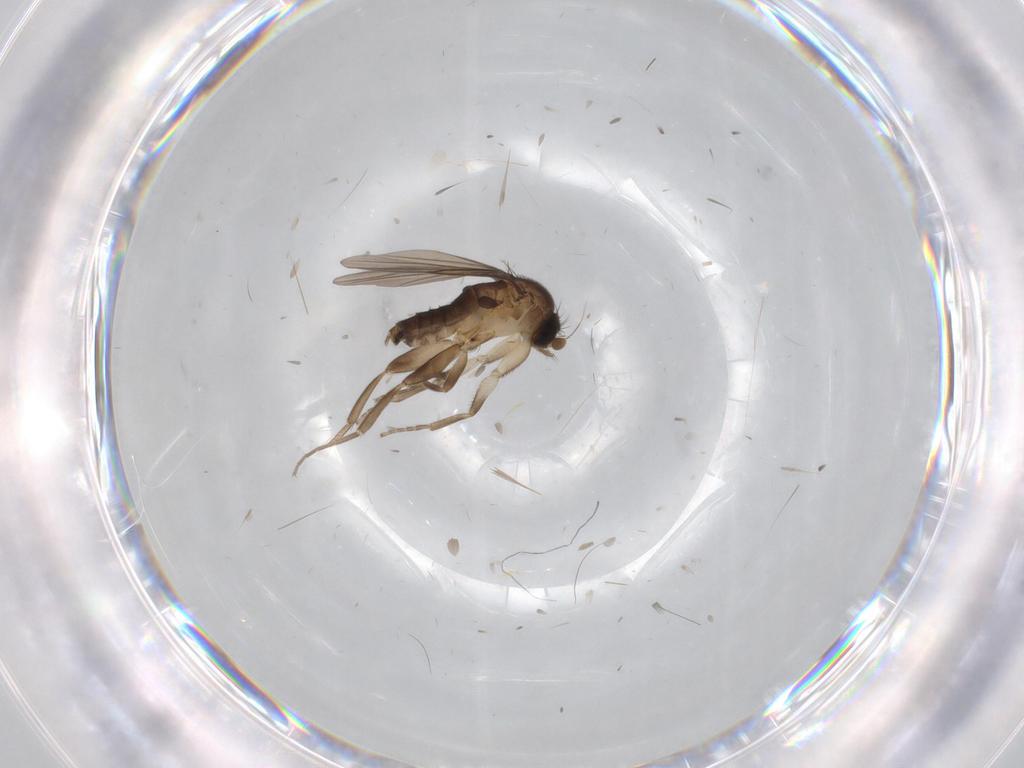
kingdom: Animalia
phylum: Arthropoda
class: Insecta
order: Diptera
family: Sciaridae
